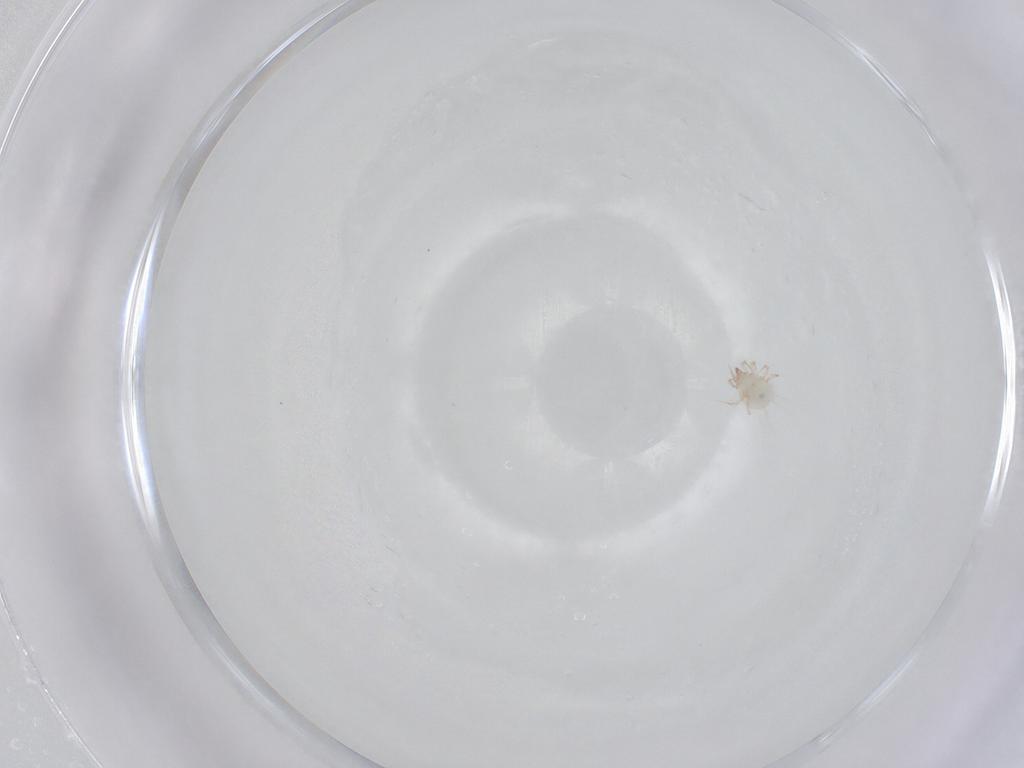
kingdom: Animalia
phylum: Arthropoda
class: Arachnida
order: Sarcoptiformes
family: Acaridae
